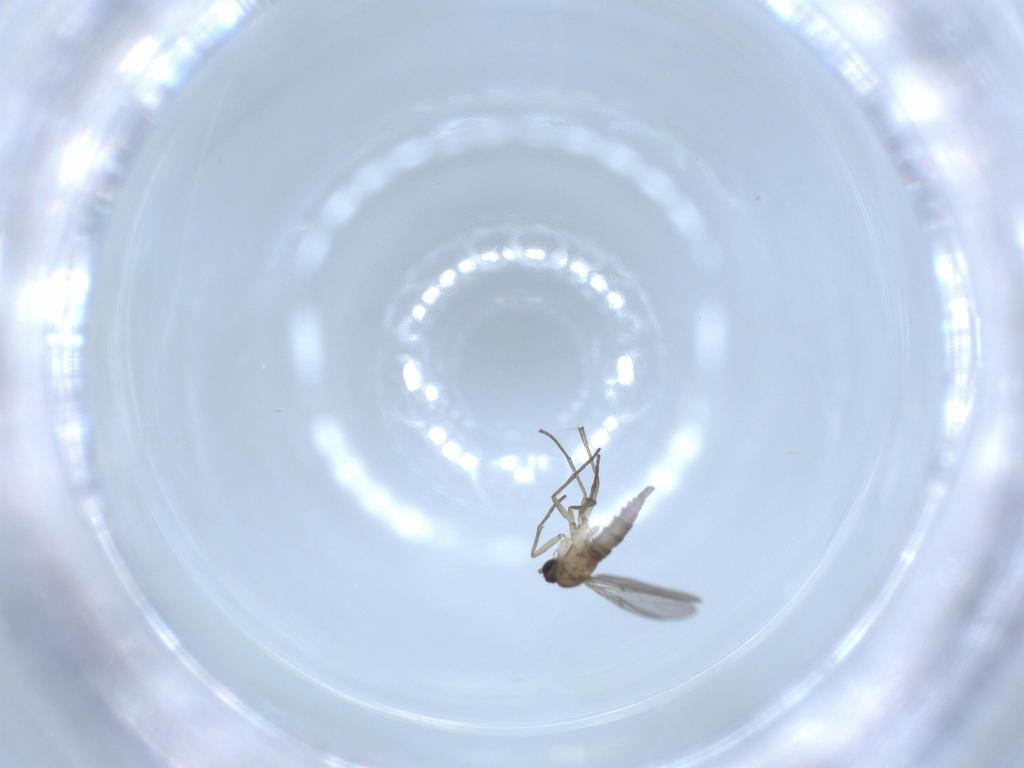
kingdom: Animalia
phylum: Arthropoda
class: Insecta
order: Diptera
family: Sciaridae
